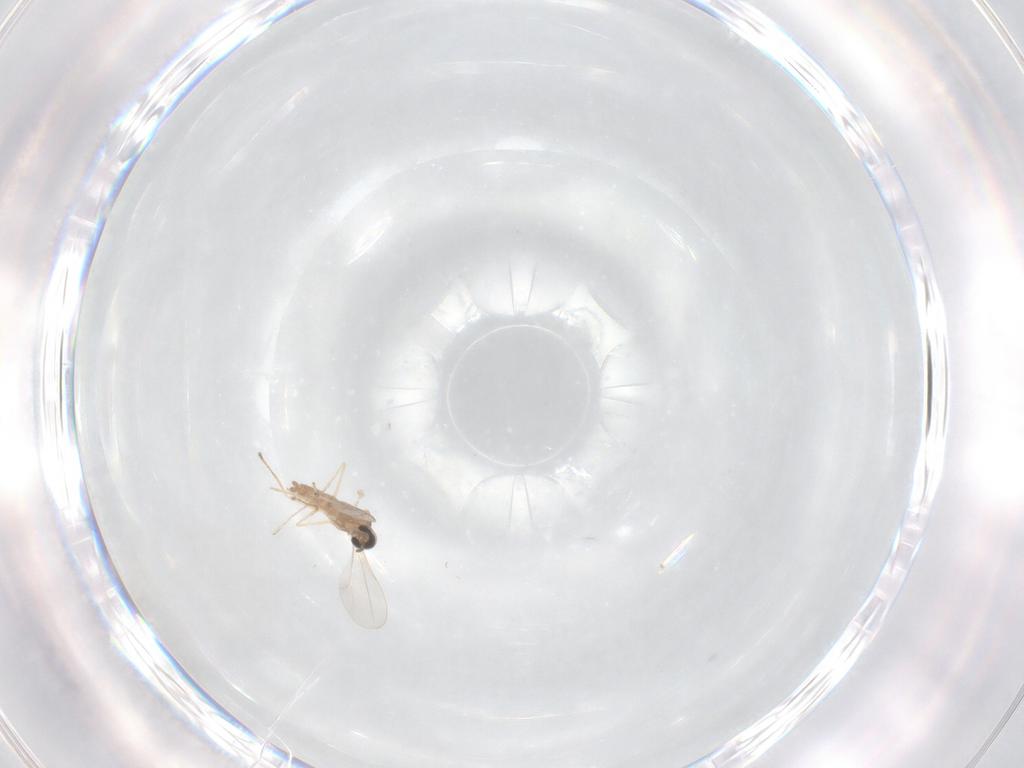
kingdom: Animalia
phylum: Arthropoda
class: Insecta
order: Diptera
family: Cecidomyiidae
